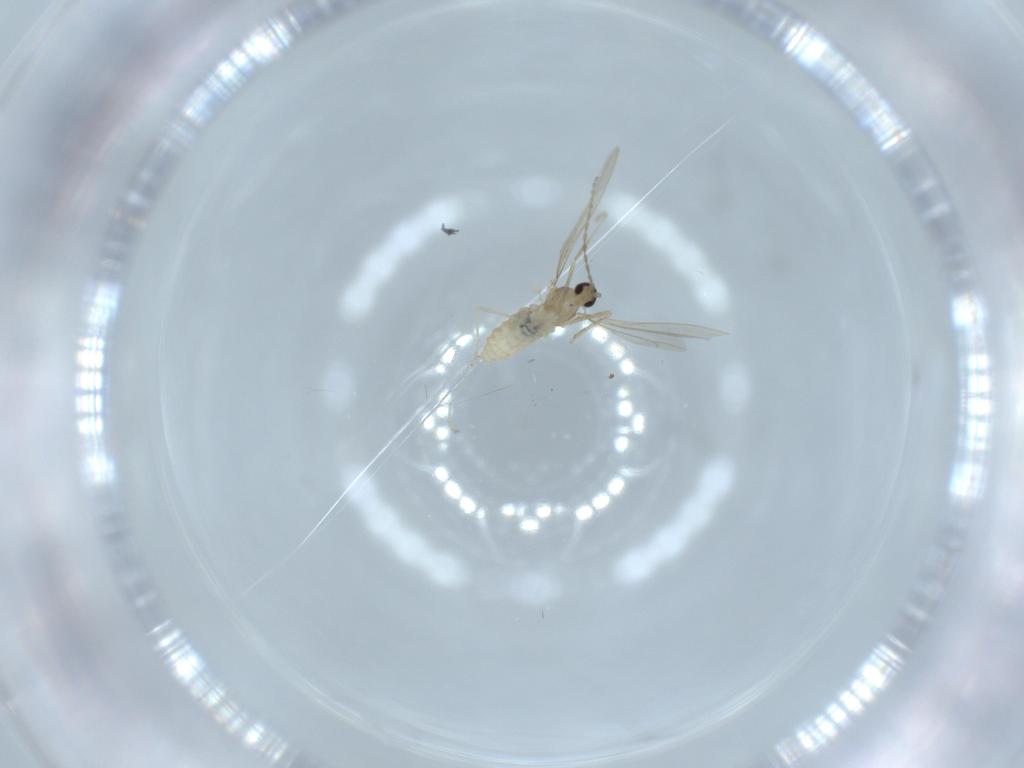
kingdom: Animalia
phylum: Arthropoda
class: Insecta
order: Diptera
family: Cecidomyiidae
